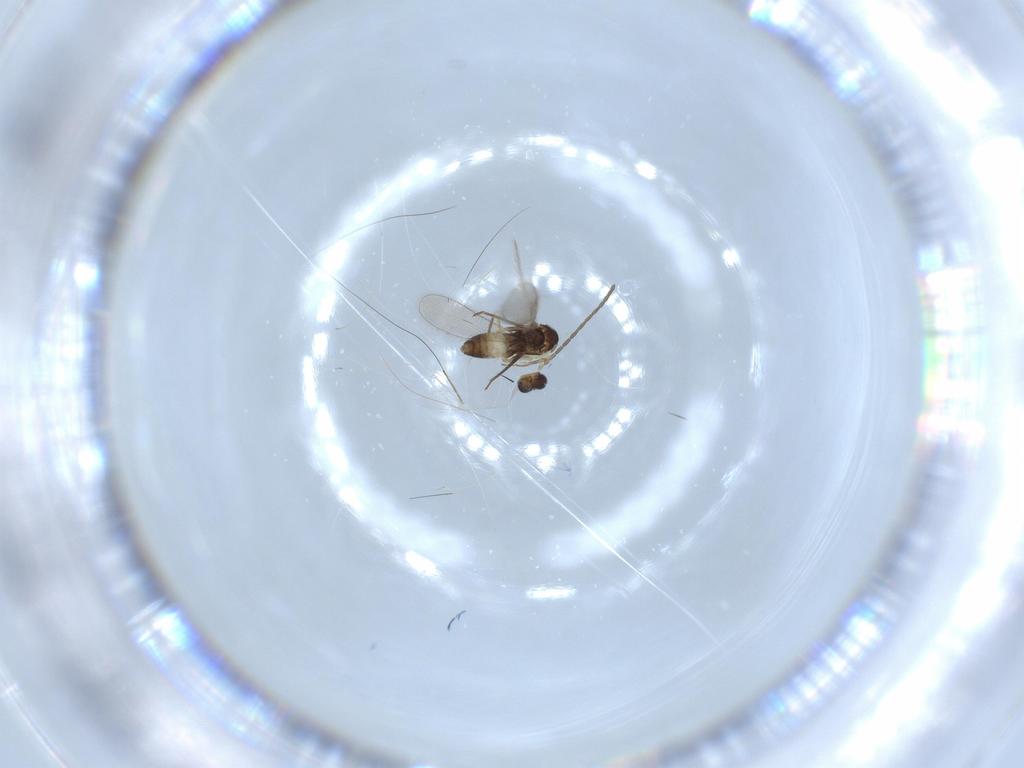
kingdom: Animalia
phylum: Arthropoda
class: Insecta
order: Hymenoptera
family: Mymaridae
